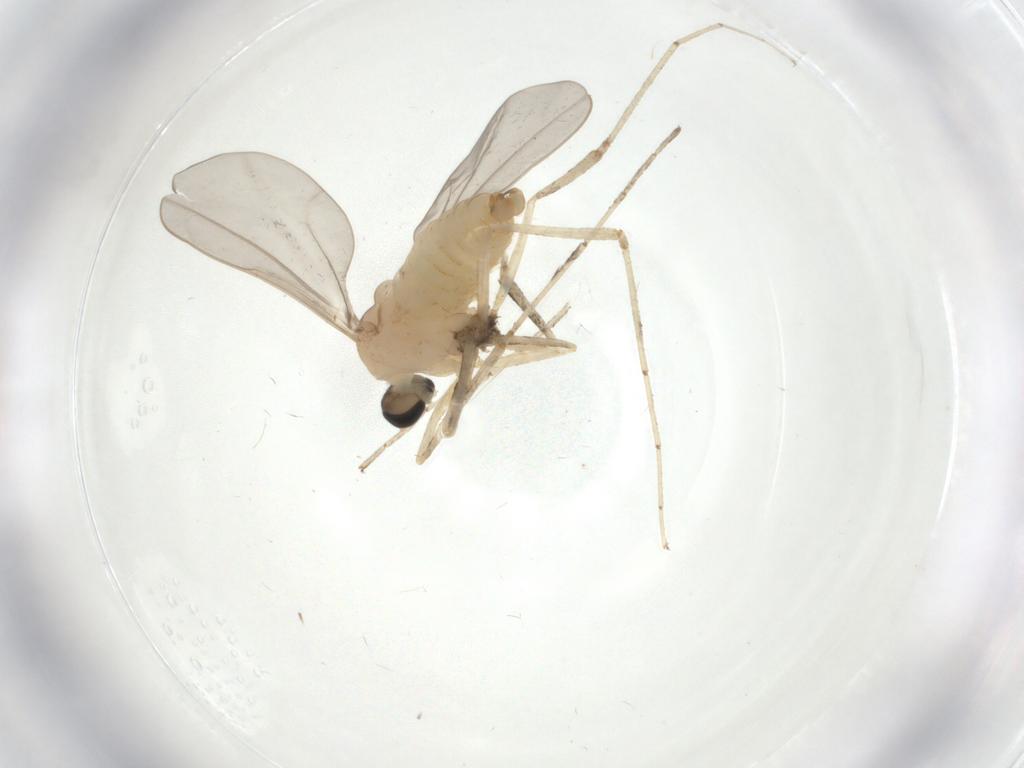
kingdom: Animalia
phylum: Arthropoda
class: Insecta
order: Diptera
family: Cecidomyiidae
